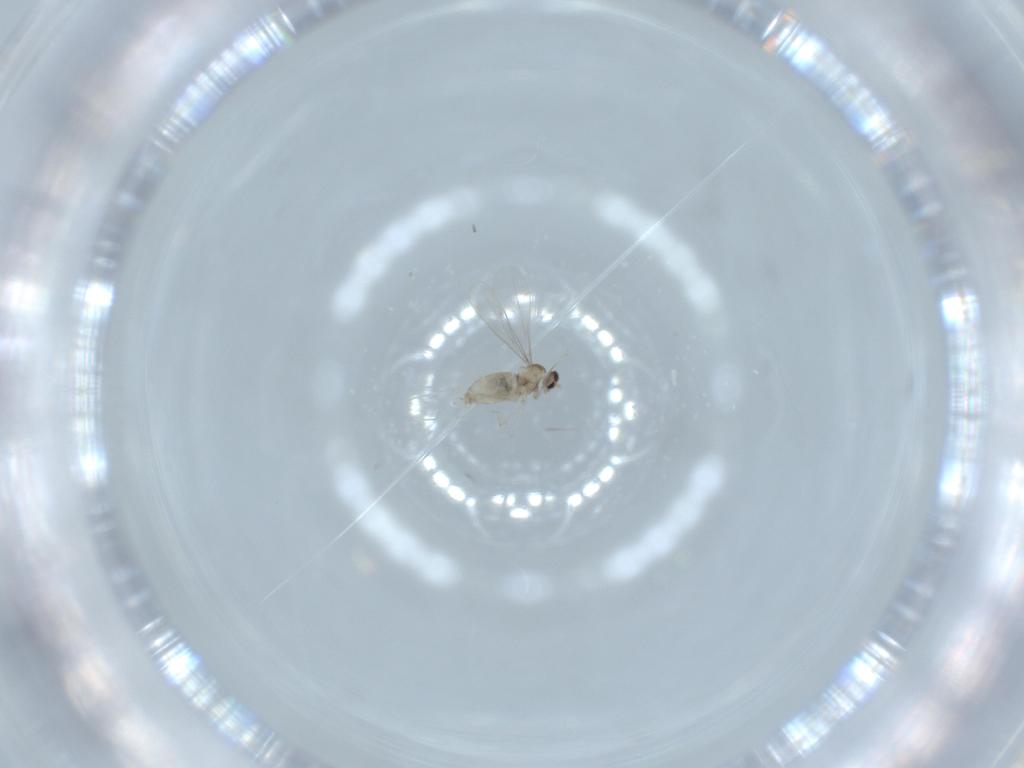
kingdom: Animalia
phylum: Arthropoda
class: Insecta
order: Diptera
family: Cecidomyiidae
